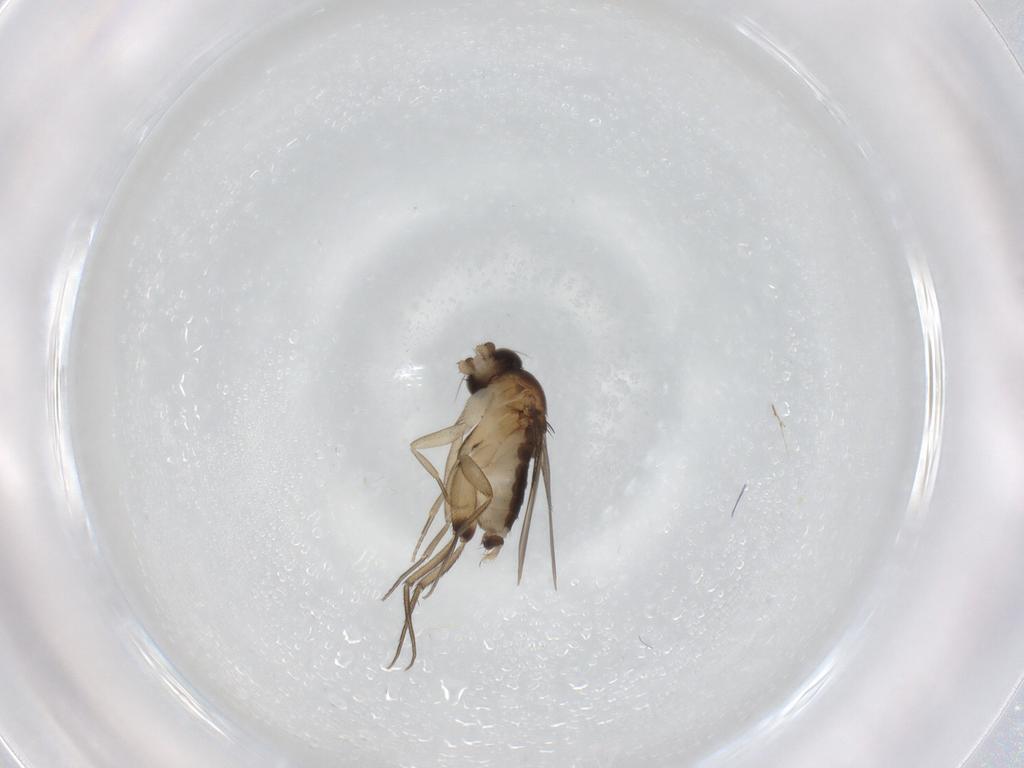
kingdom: Animalia
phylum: Arthropoda
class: Insecta
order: Diptera
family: Phoridae
